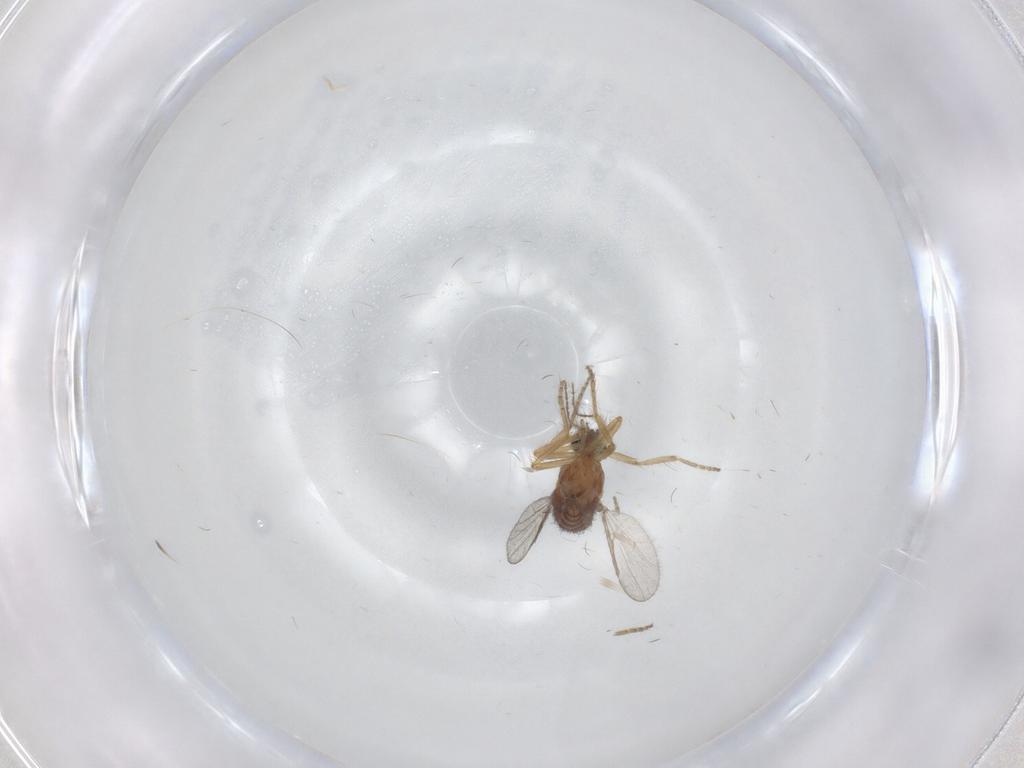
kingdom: Animalia
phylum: Arthropoda
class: Insecta
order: Diptera
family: Ceratopogonidae
